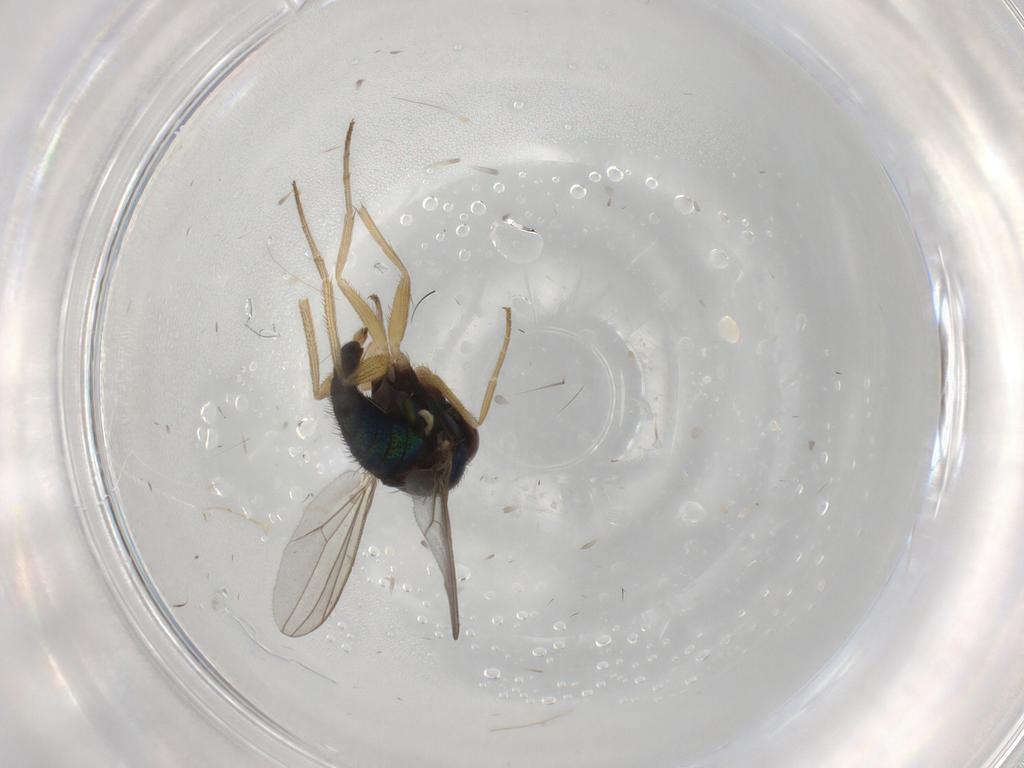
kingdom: Animalia
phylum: Arthropoda
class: Insecta
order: Diptera
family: Dolichopodidae
